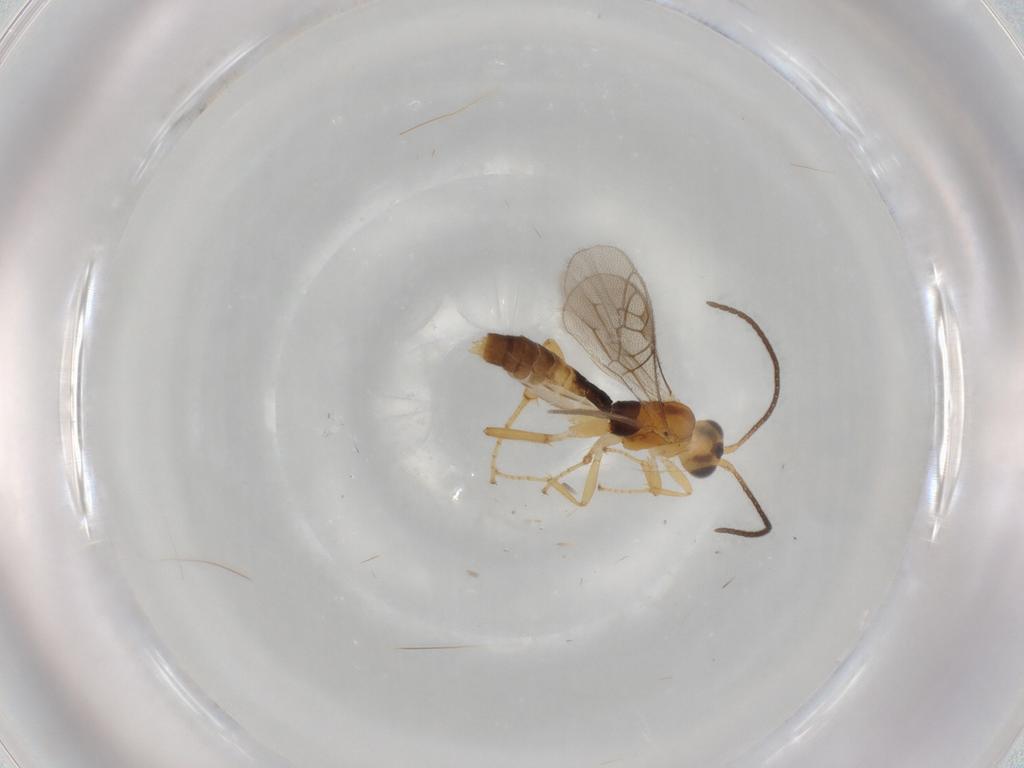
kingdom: Animalia
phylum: Arthropoda
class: Insecta
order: Hymenoptera
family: Ichneumonidae
